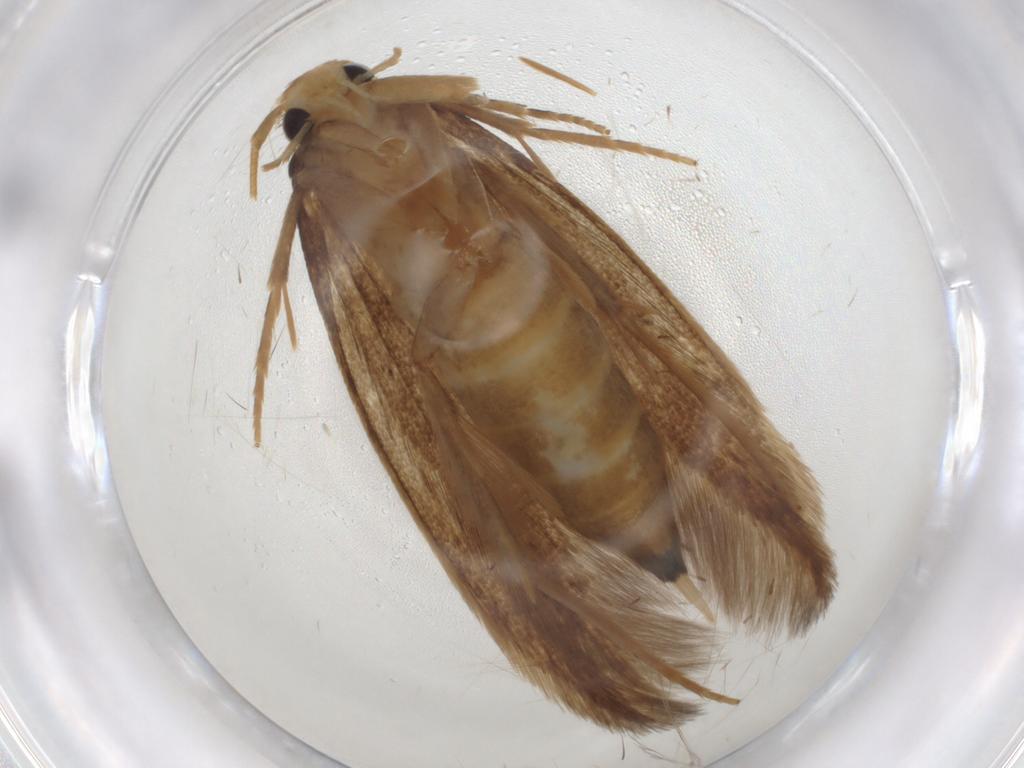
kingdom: Animalia
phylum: Arthropoda
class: Insecta
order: Lepidoptera
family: Tineidae
